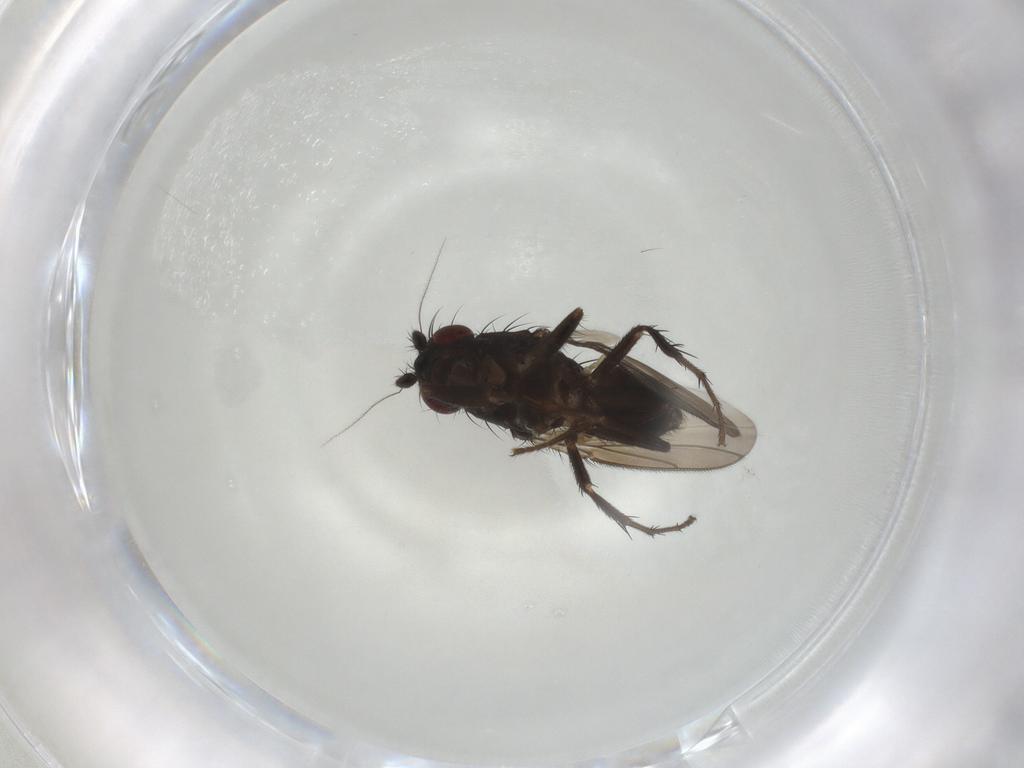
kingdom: Animalia
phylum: Arthropoda
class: Insecta
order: Diptera
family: Sphaeroceridae
